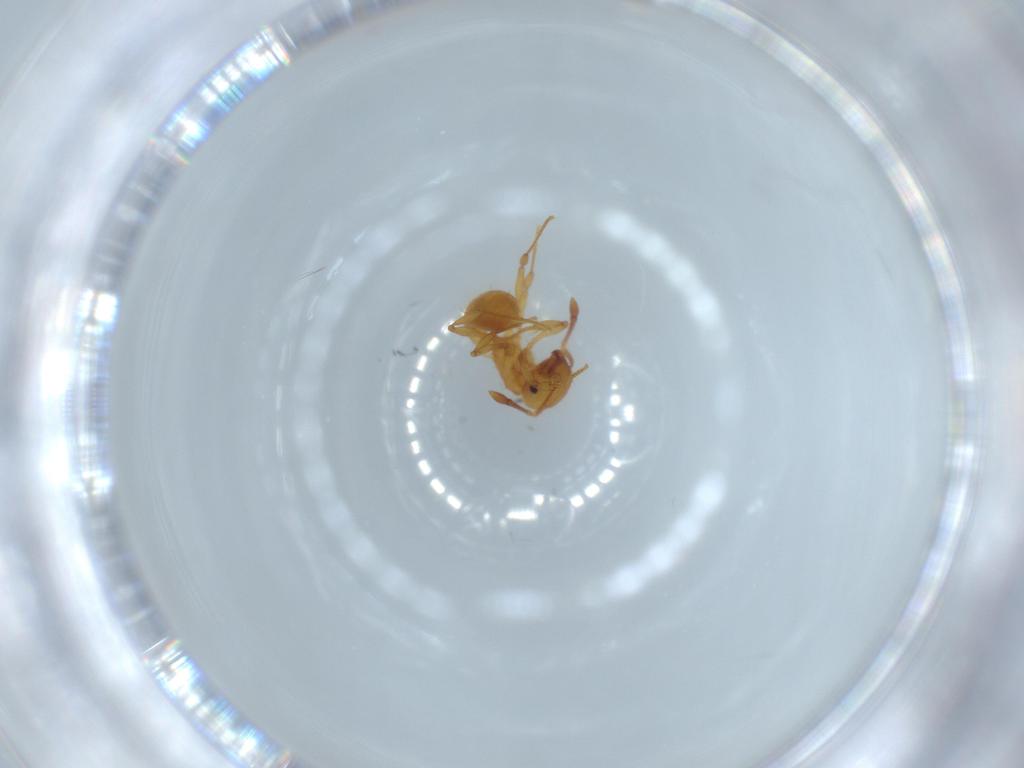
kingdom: Animalia
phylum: Arthropoda
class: Insecta
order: Hymenoptera
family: Formicidae
